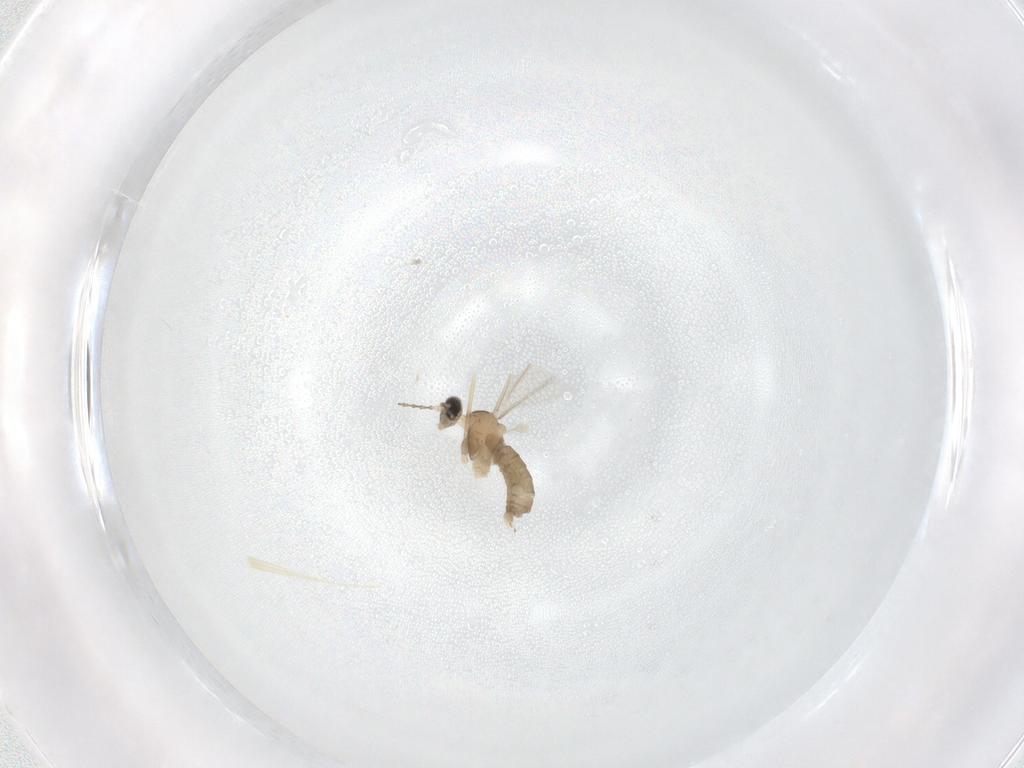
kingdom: Animalia
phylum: Arthropoda
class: Insecta
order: Diptera
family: Cecidomyiidae
